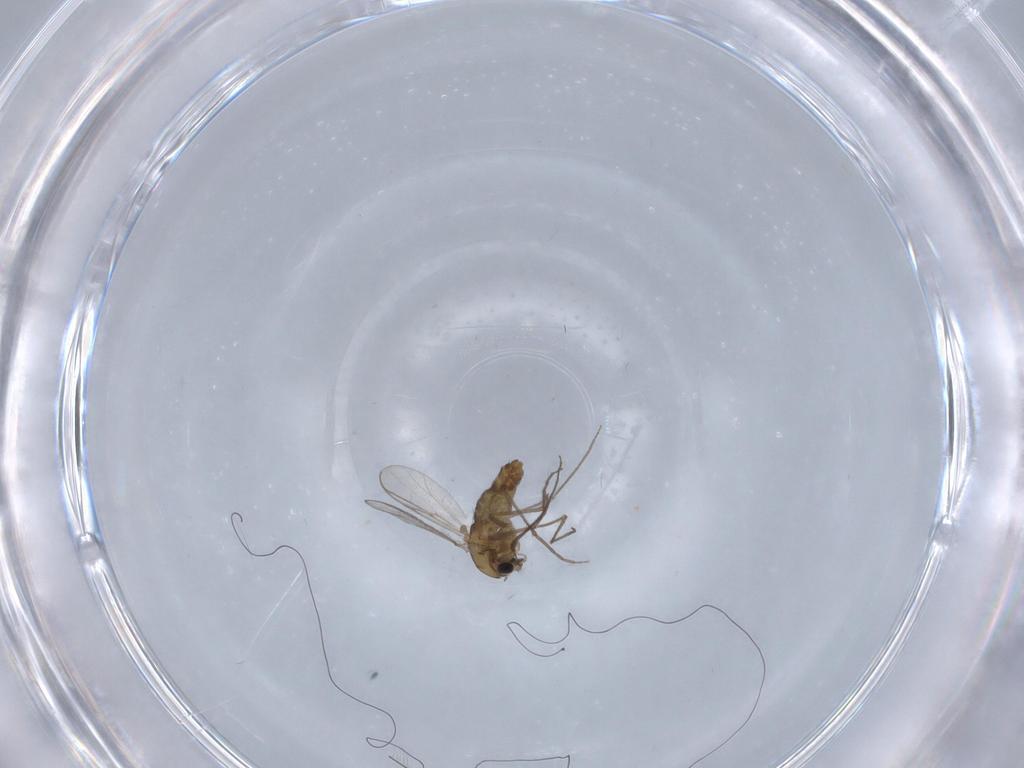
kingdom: Animalia
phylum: Arthropoda
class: Insecta
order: Diptera
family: Chironomidae
